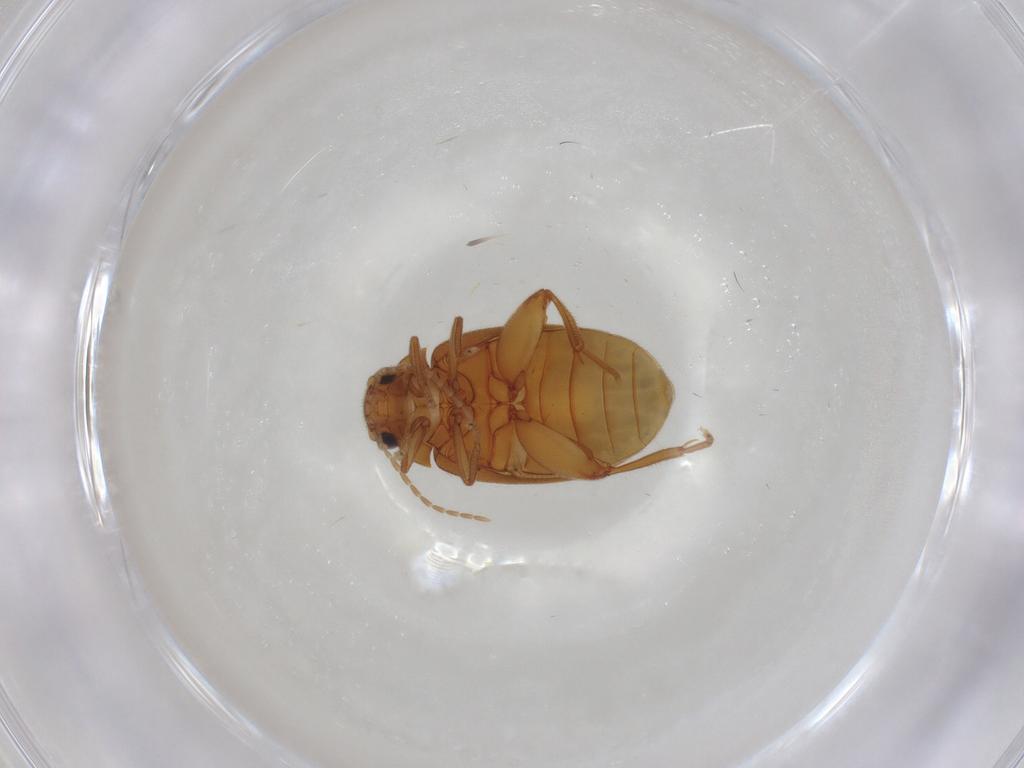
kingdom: Animalia
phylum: Arthropoda
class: Insecta
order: Coleoptera
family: Scirtidae
